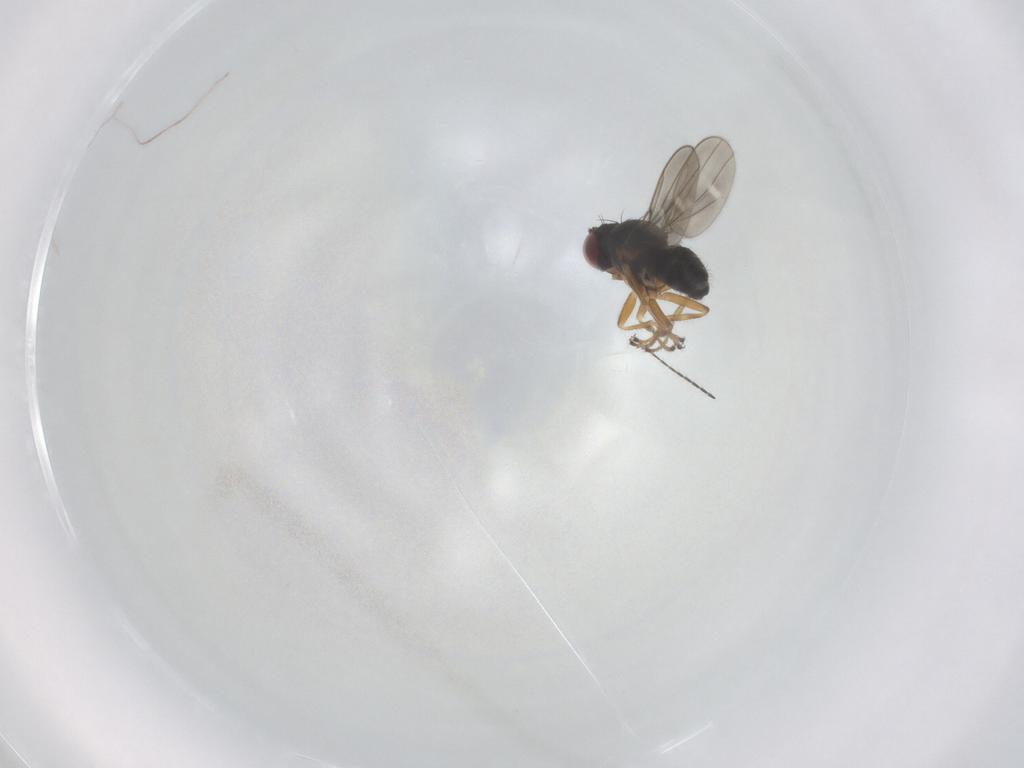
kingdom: Animalia
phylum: Arthropoda
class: Insecta
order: Diptera
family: Ephydridae
